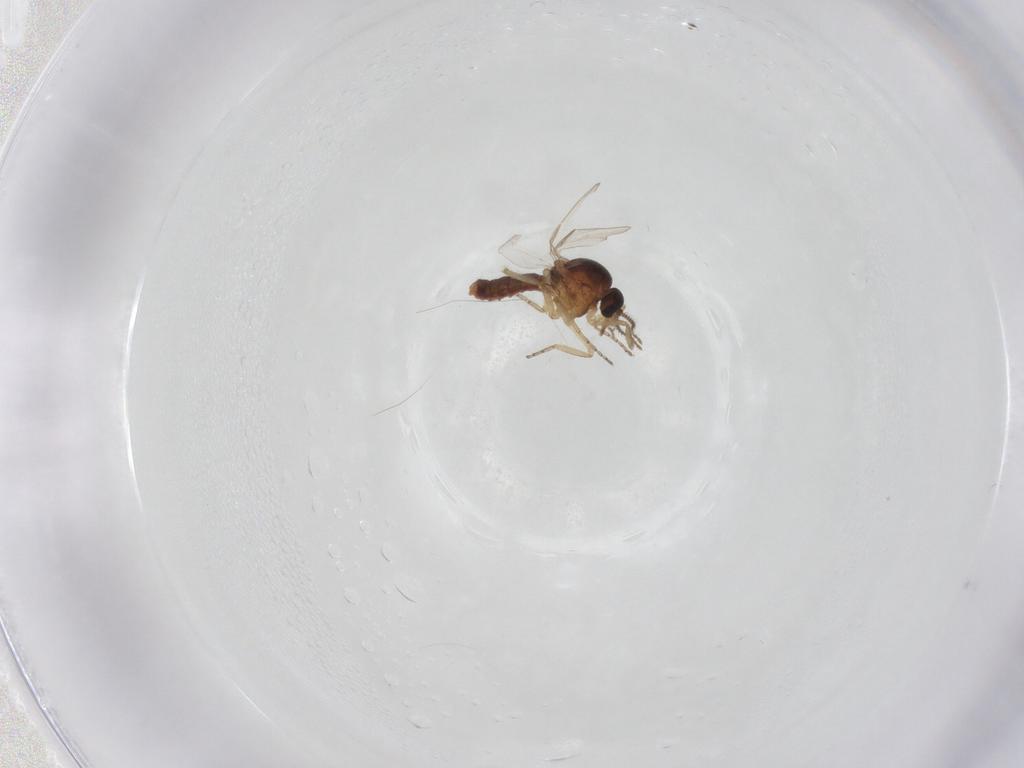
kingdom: Animalia
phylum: Arthropoda
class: Insecta
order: Diptera
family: Ceratopogonidae
